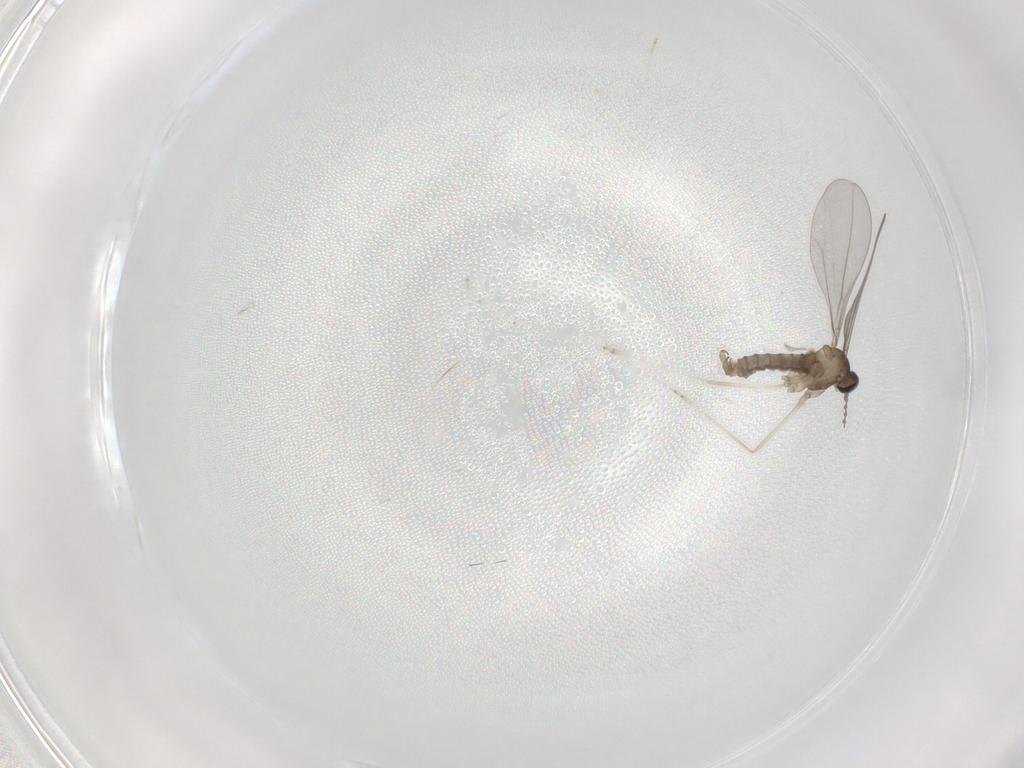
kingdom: Animalia
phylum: Arthropoda
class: Insecta
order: Diptera
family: Cecidomyiidae
